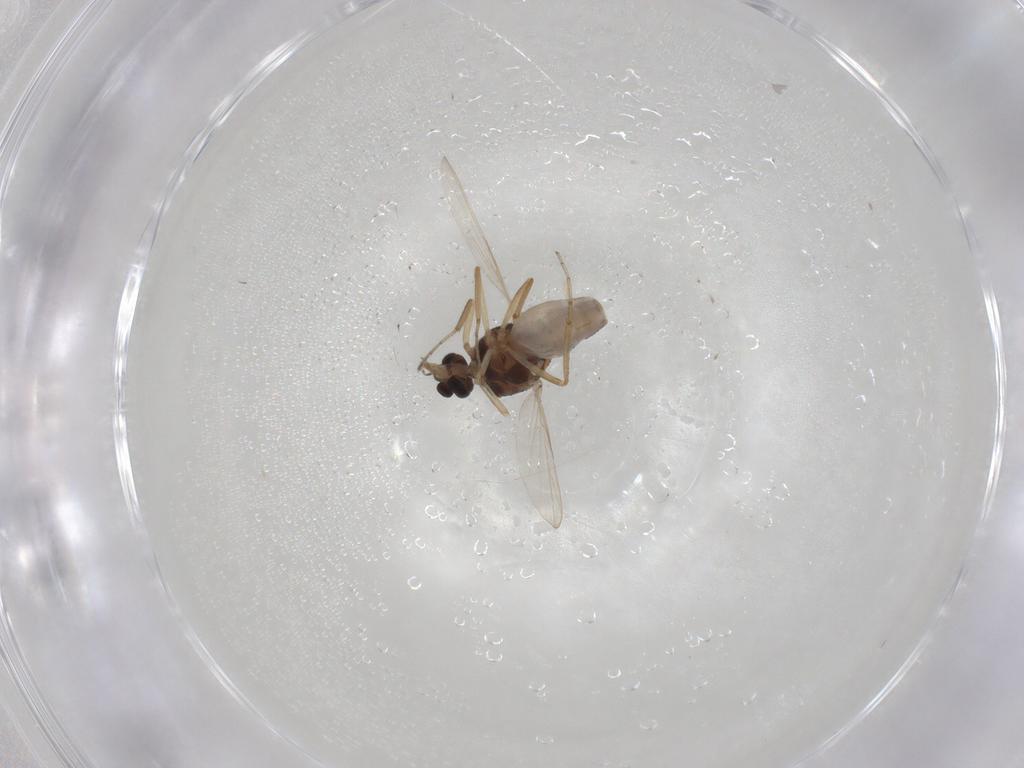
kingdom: Animalia
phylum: Arthropoda
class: Insecta
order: Diptera
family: Ceratopogonidae
